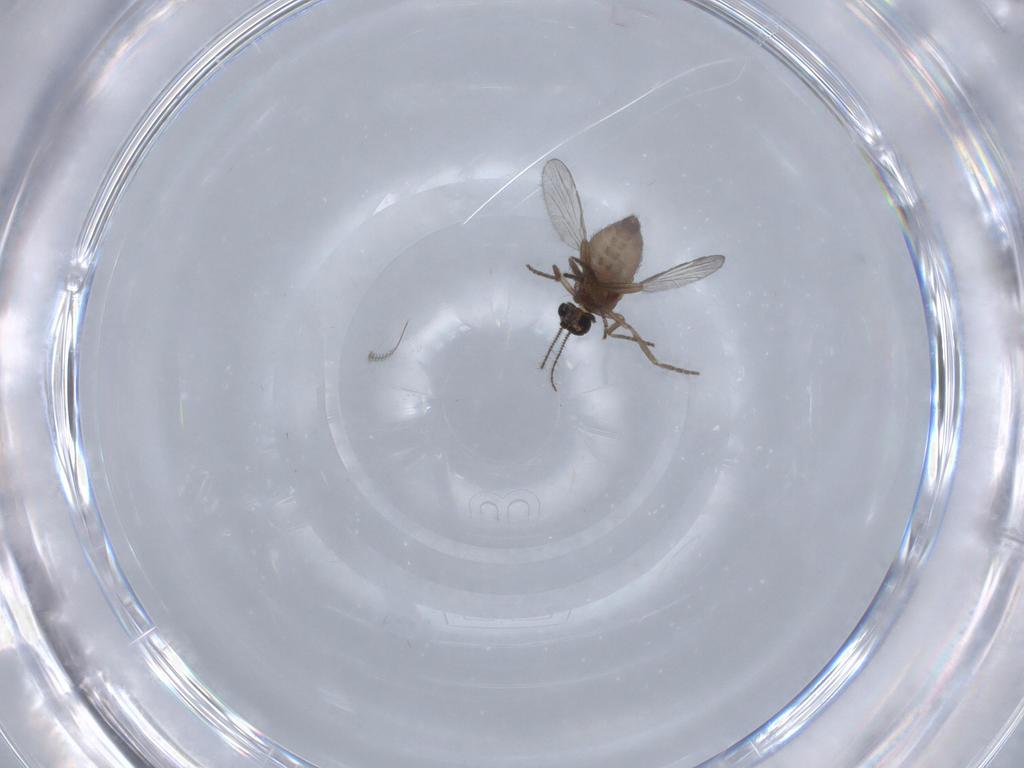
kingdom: Animalia
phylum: Arthropoda
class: Insecta
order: Diptera
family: Ceratopogonidae
